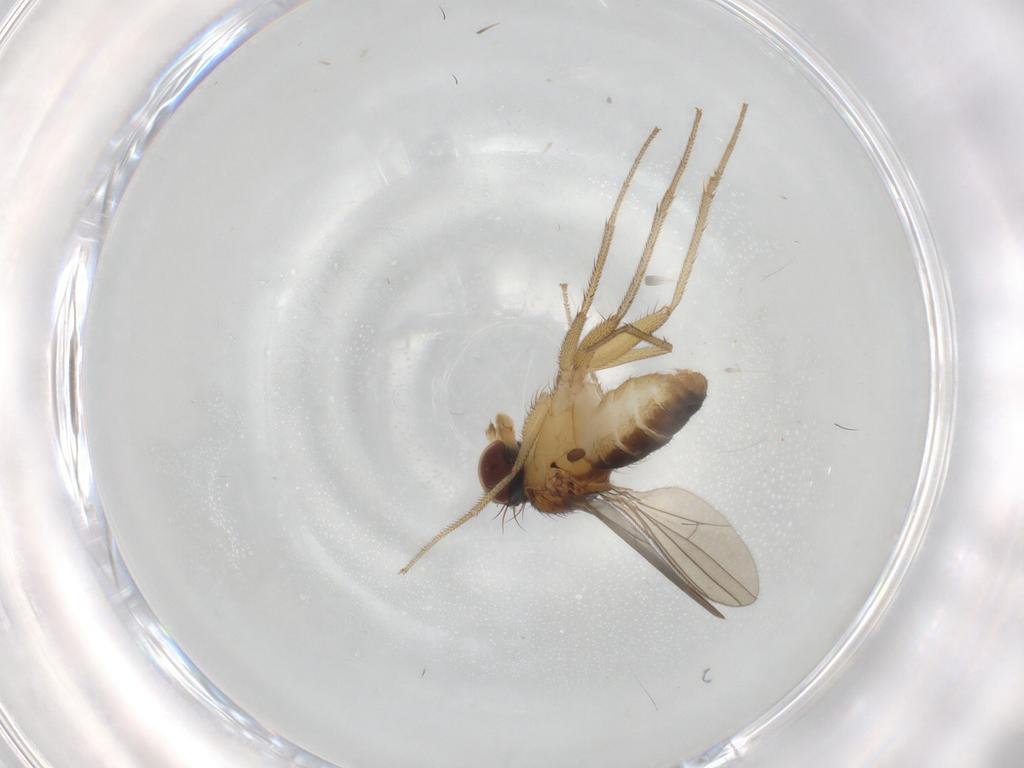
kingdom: Animalia
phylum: Arthropoda
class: Insecta
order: Diptera
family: Dolichopodidae
